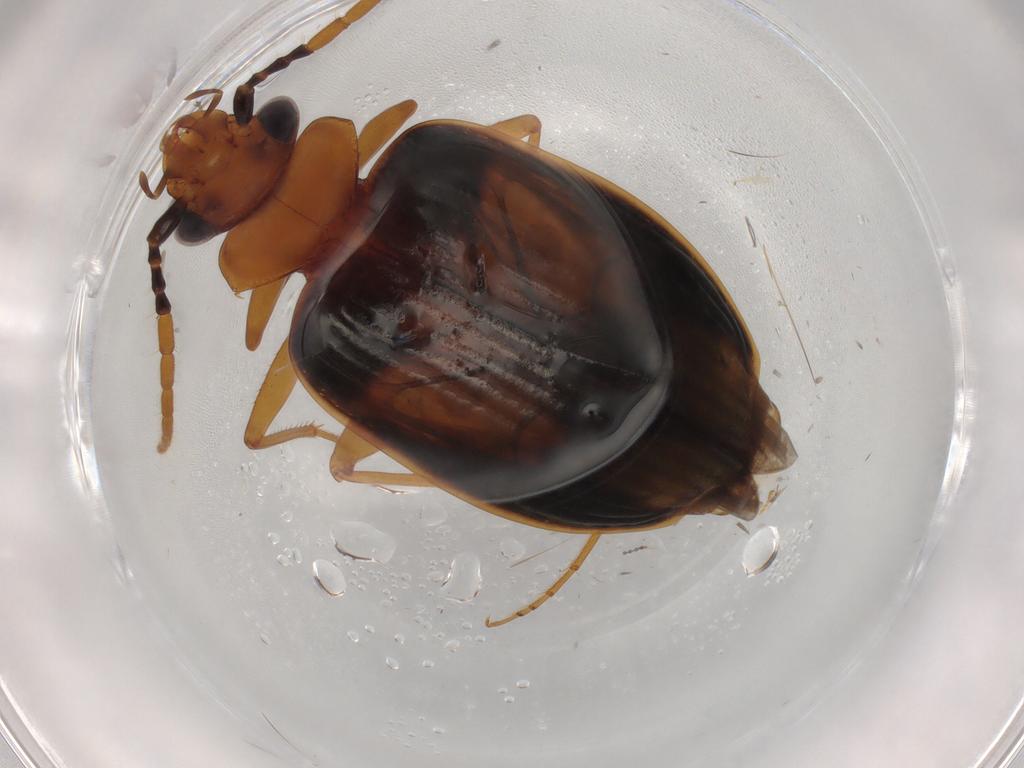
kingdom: Animalia
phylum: Arthropoda
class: Insecta
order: Coleoptera
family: Carabidae
